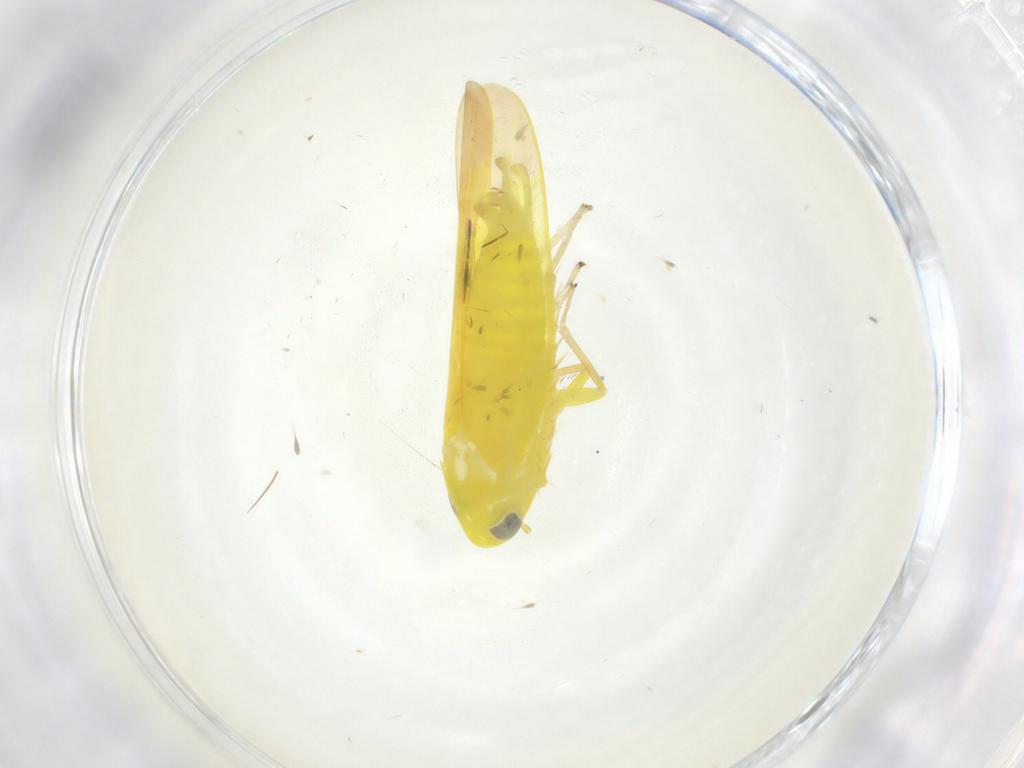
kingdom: Animalia
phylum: Arthropoda
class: Insecta
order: Hemiptera
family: Cicadellidae
